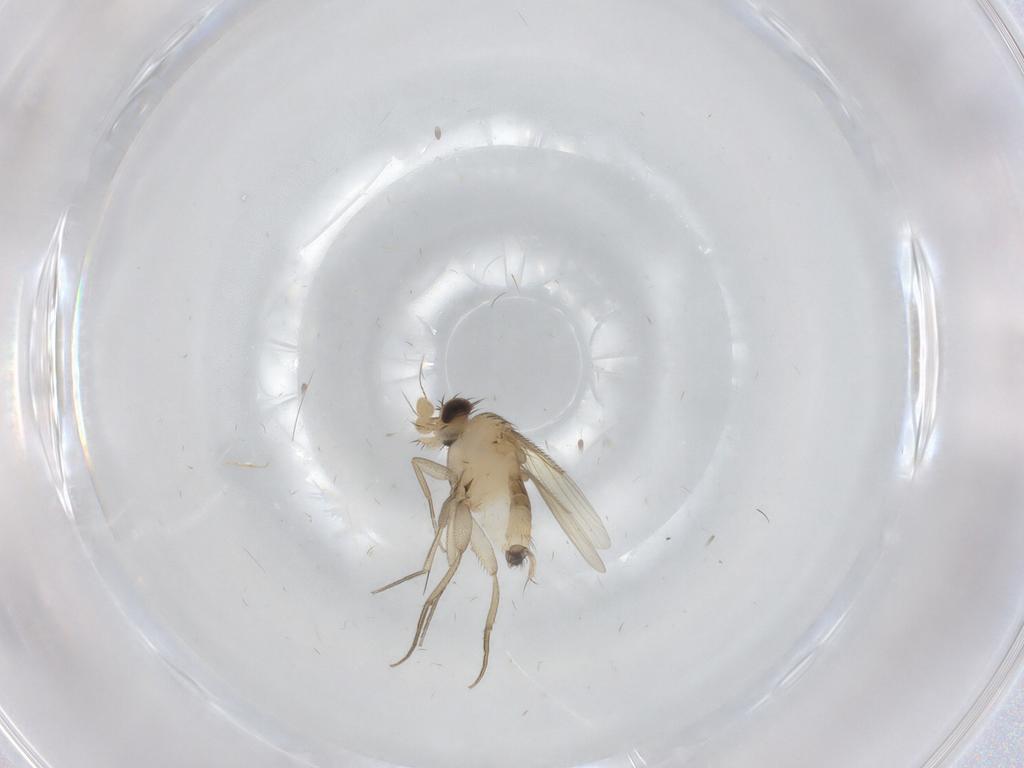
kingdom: Animalia
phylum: Arthropoda
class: Insecta
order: Diptera
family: Phoridae
